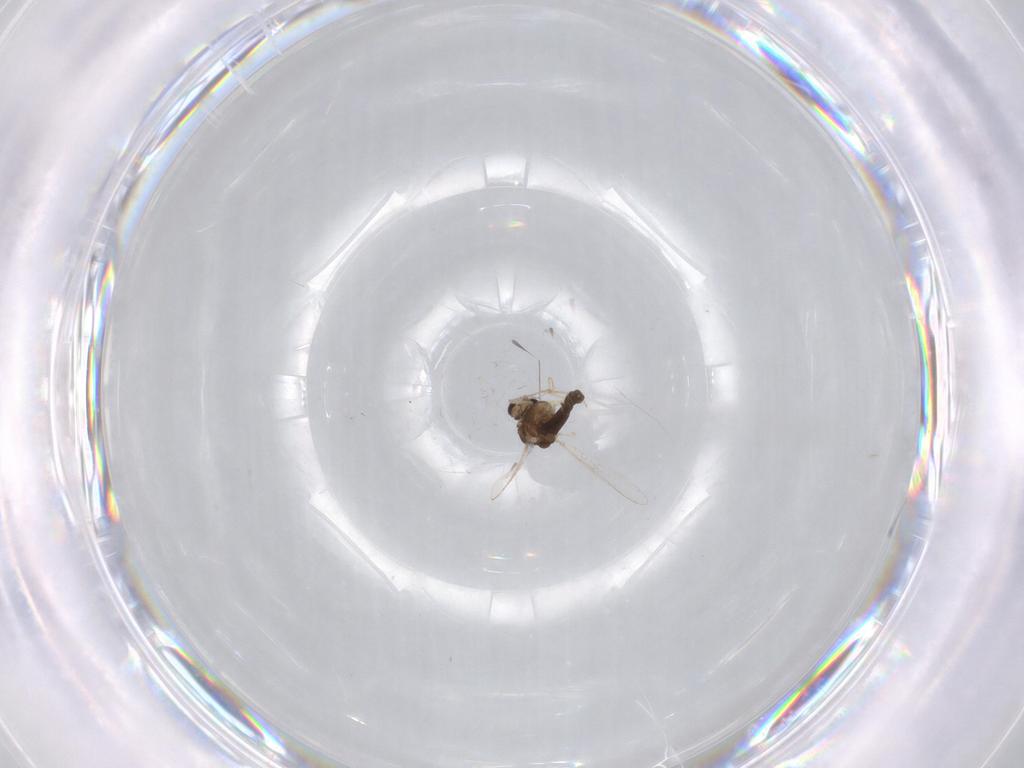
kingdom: Animalia
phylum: Arthropoda
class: Insecta
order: Diptera
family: Chironomidae
